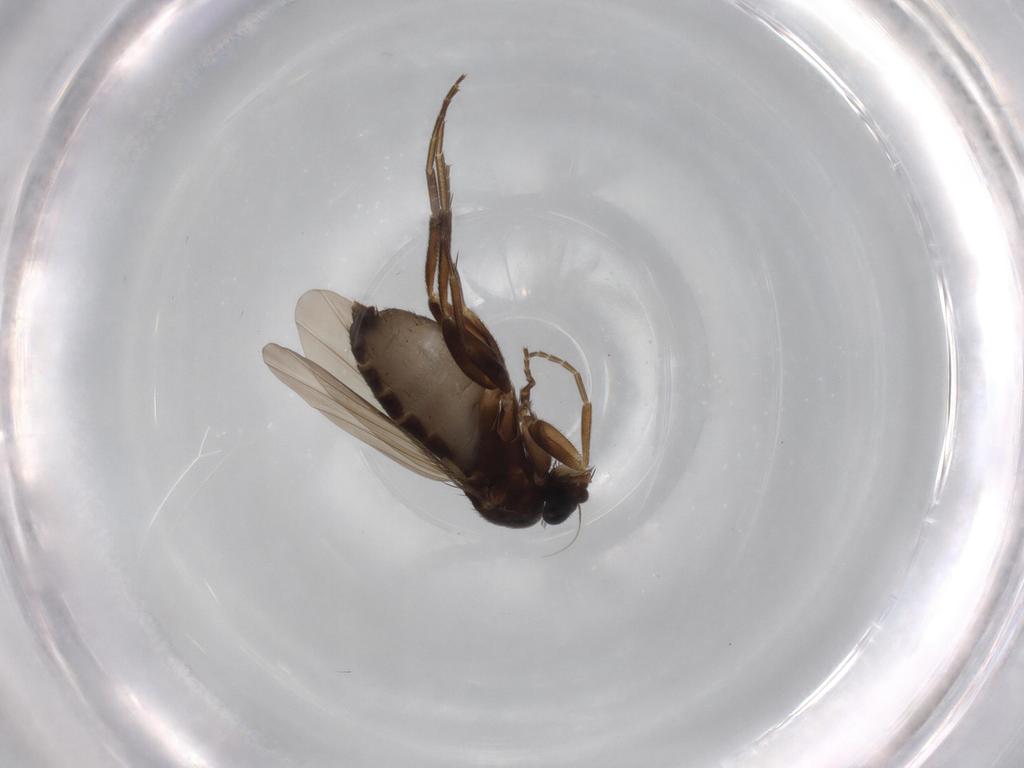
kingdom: Animalia
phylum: Arthropoda
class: Insecta
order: Diptera
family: Phoridae
